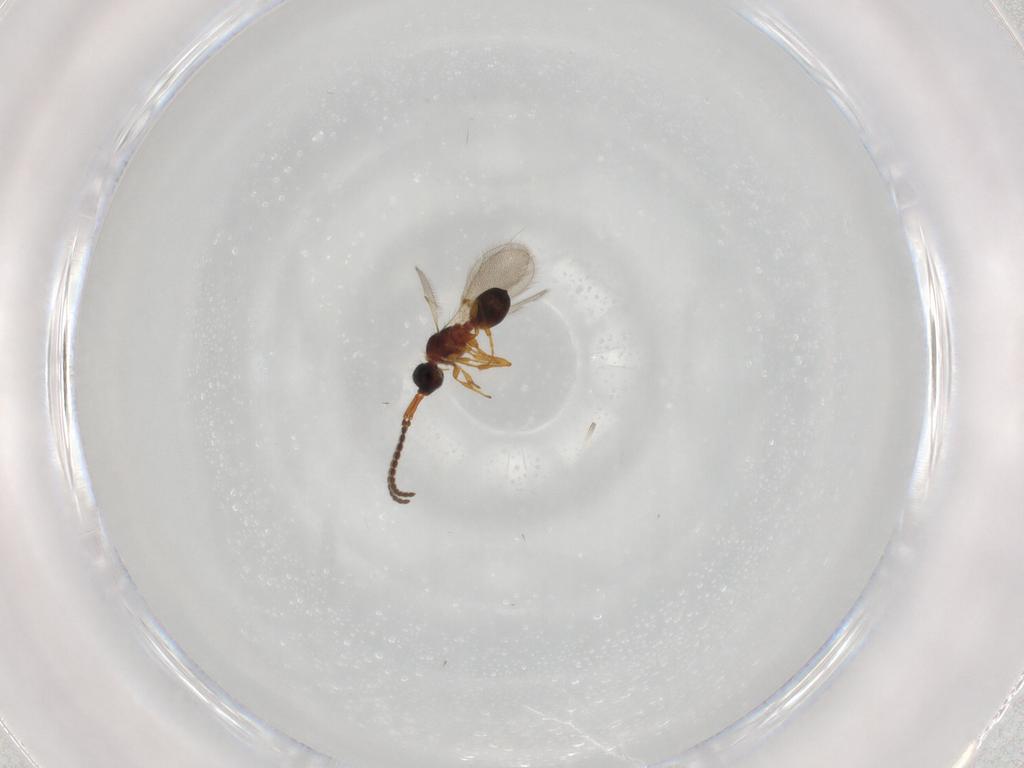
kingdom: Animalia
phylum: Arthropoda
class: Insecta
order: Hymenoptera
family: Diapriidae
